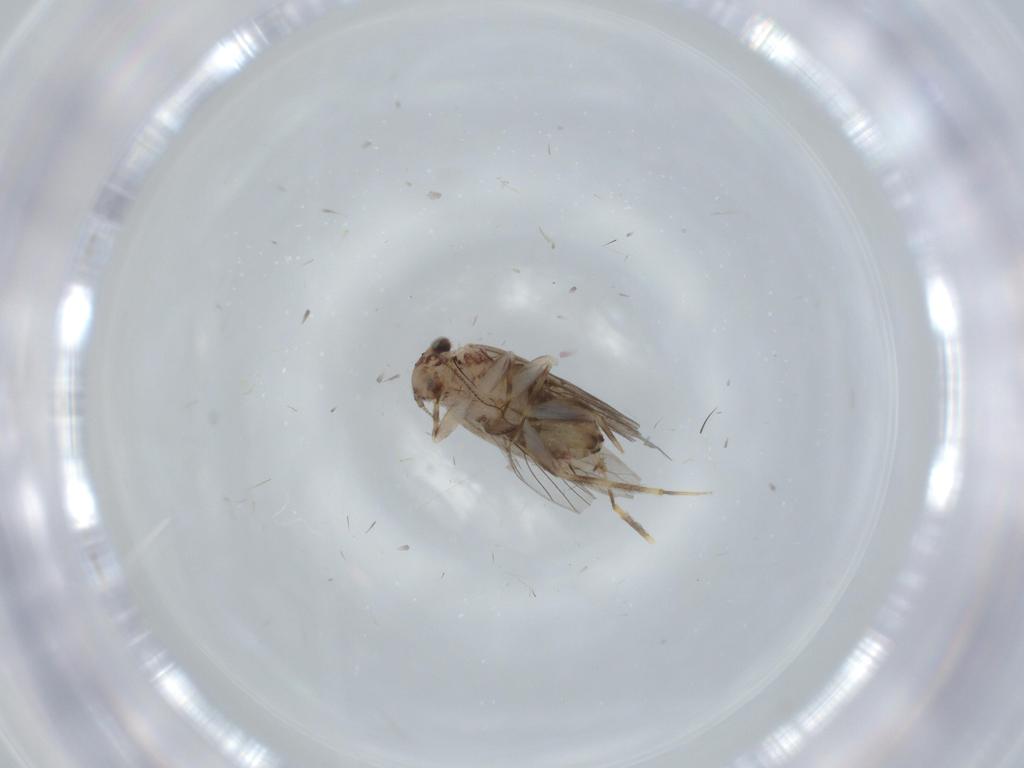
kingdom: Animalia
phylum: Arthropoda
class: Insecta
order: Psocodea
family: Lepidopsocidae
